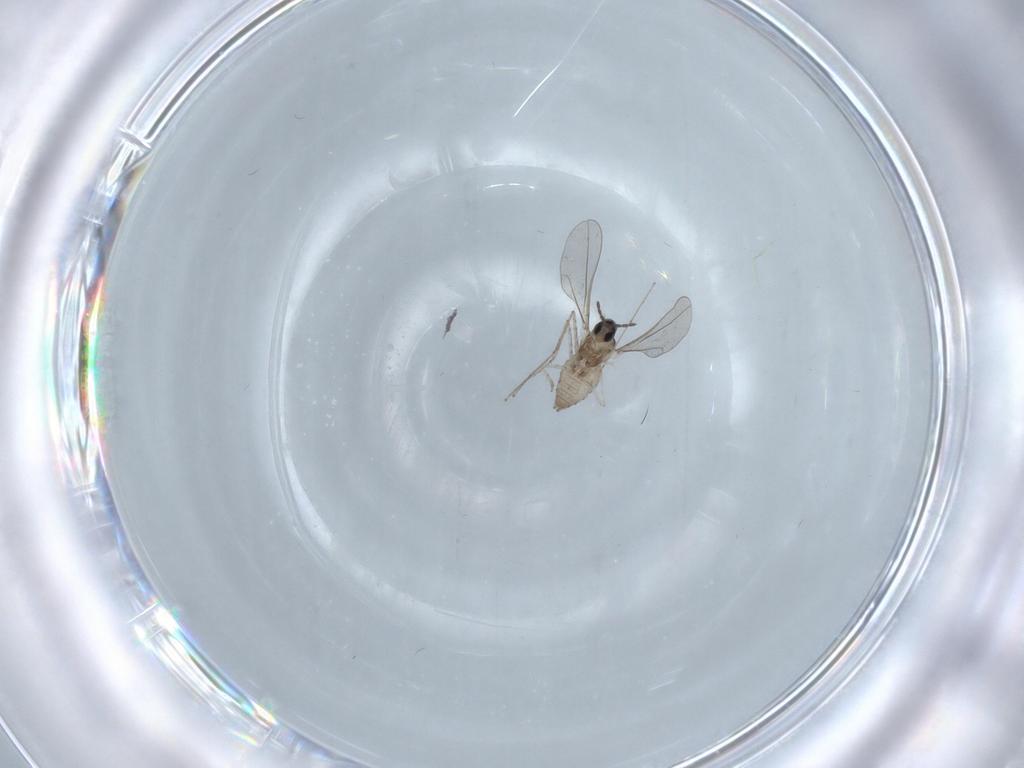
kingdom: Animalia
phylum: Arthropoda
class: Insecta
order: Diptera
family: Cecidomyiidae
